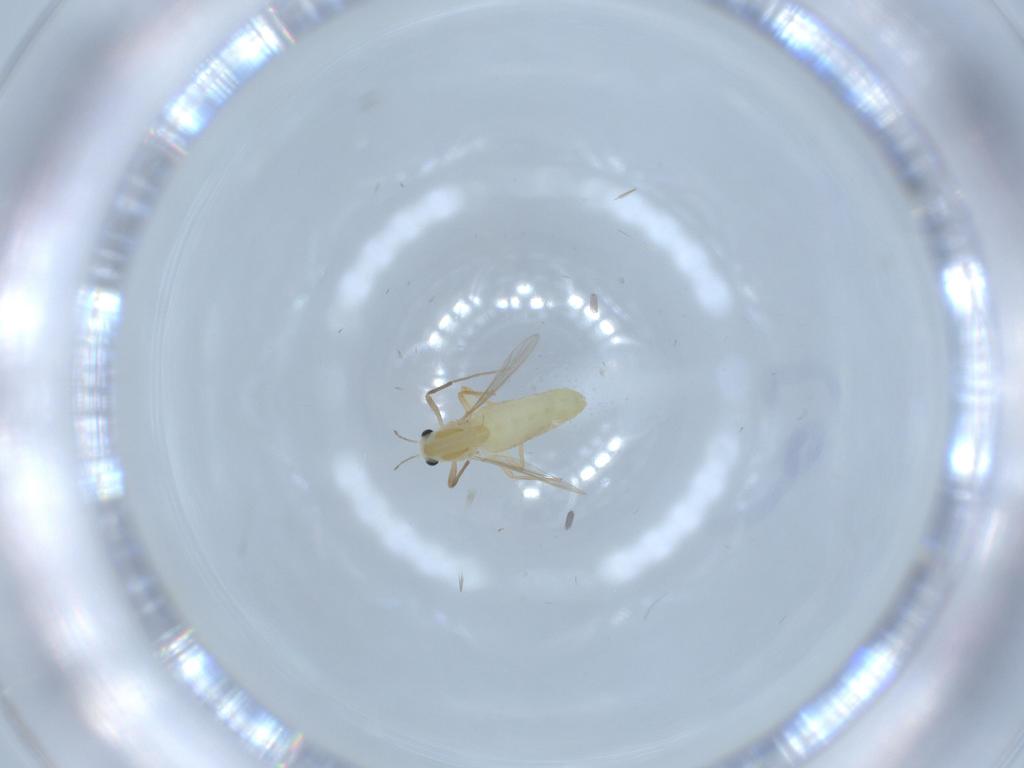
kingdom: Animalia
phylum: Arthropoda
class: Insecta
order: Diptera
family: Chironomidae
